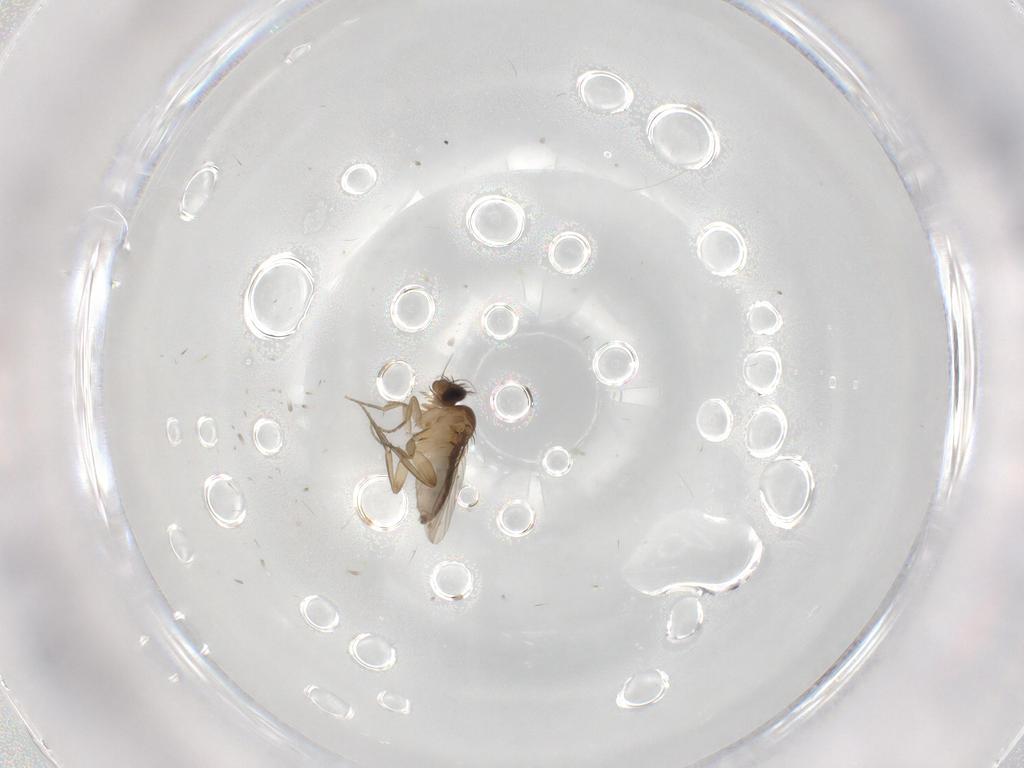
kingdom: Animalia
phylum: Arthropoda
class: Insecta
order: Diptera
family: Phoridae
